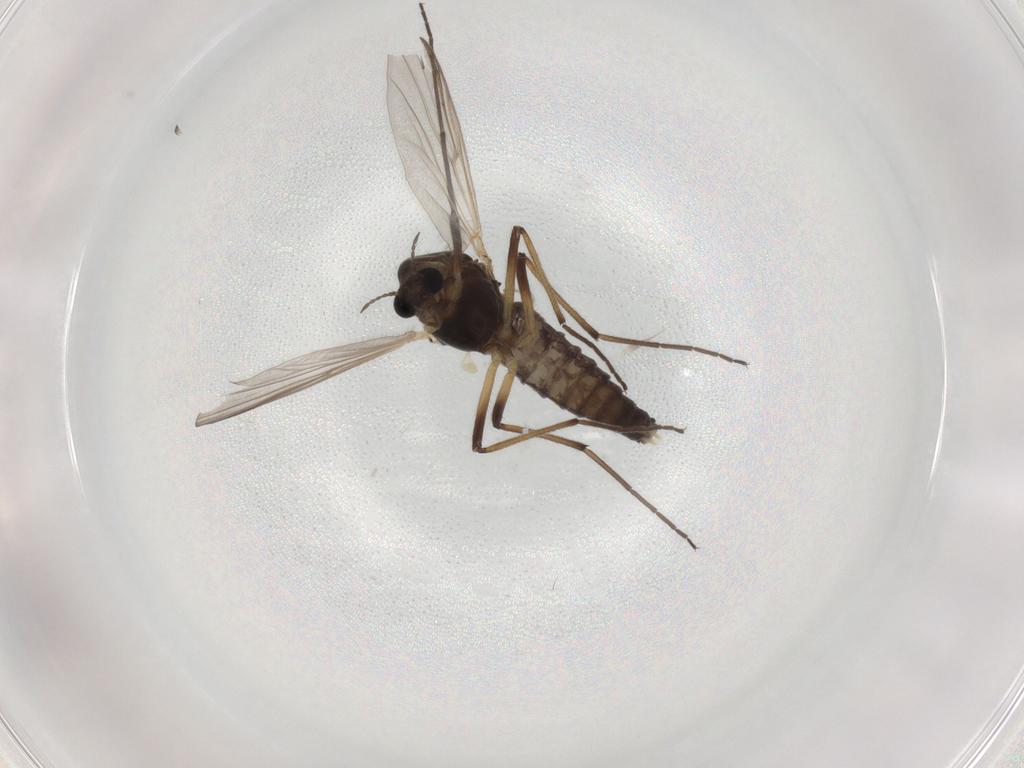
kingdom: Animalia
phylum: Arthropoda
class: Insecta
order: Diptera
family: Chironomidae
